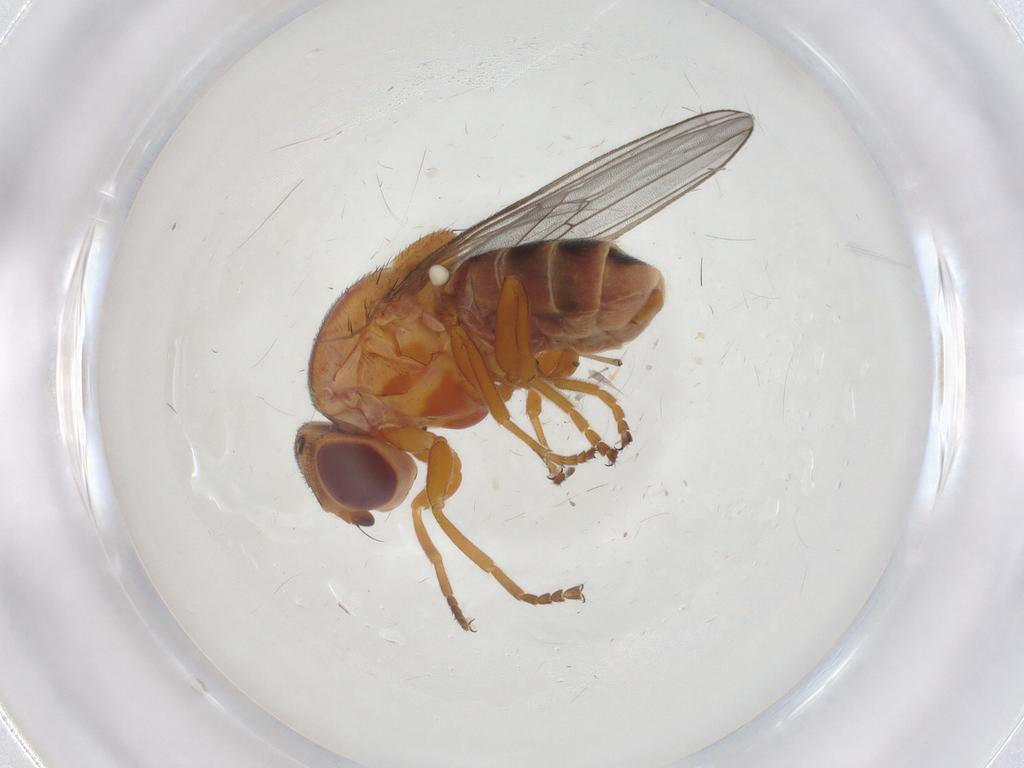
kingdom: Animalia
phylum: Arthropoda
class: Insecta
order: Diptera
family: Chloropidae
